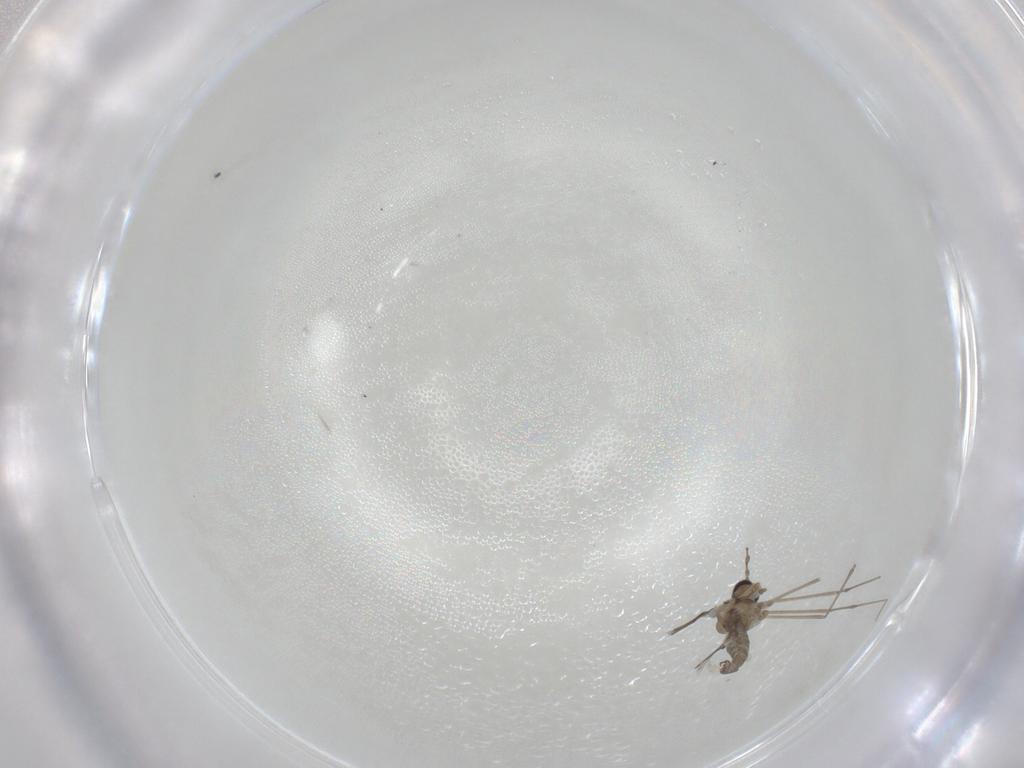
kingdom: Animalia
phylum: Arthropoda
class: Insecta
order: Diptera
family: Cecidomyiidae
